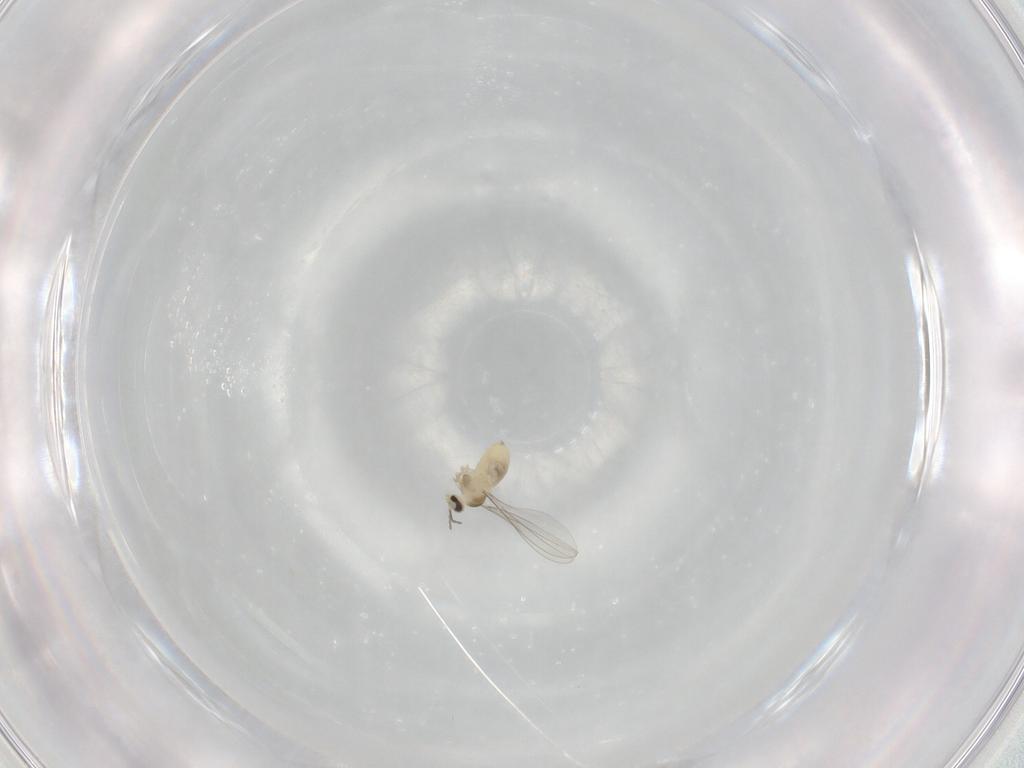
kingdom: Animalia
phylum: Arthropoda
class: Insecta
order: Diptera
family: Cecidomyiidae
